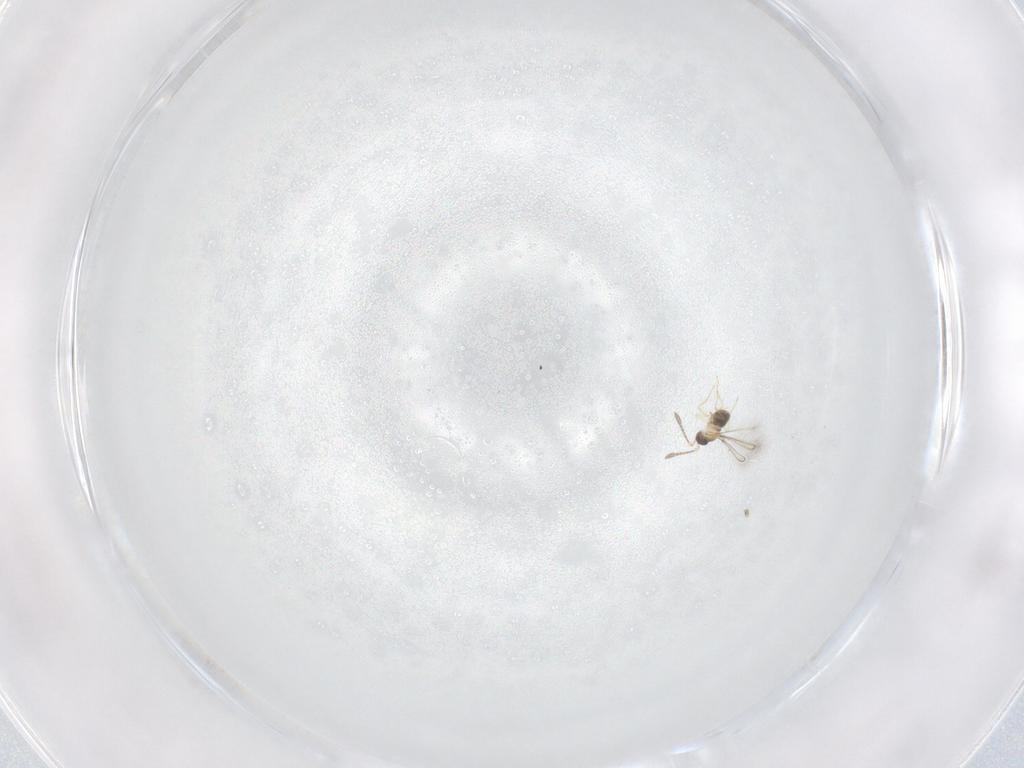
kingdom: Animalia
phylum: Arthropoda
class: Insecta
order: Hymenoptera
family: Mymaridae
